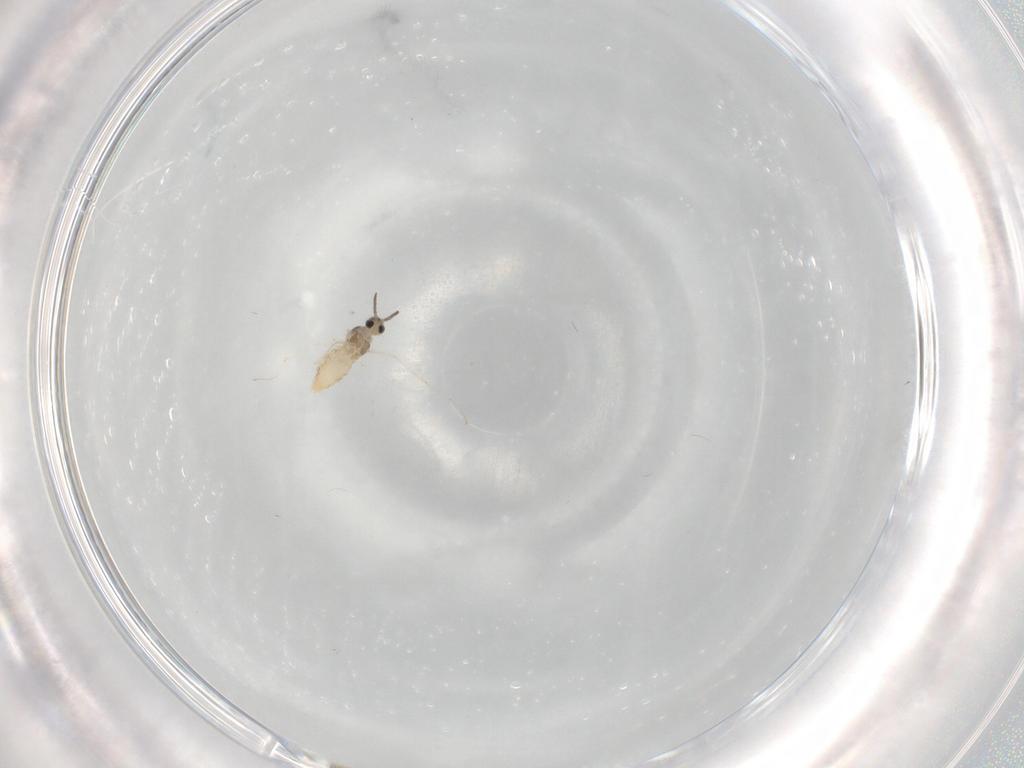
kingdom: Animalia
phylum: Arthropoda
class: Insecta
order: Diptera
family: Cecidomyiidae
